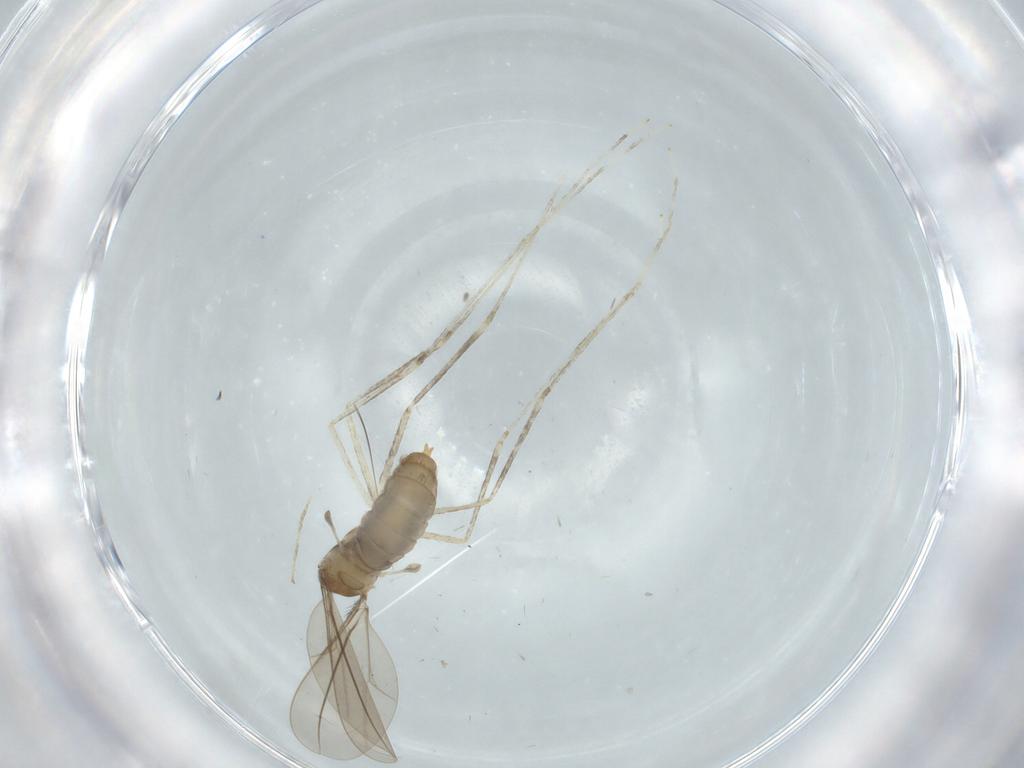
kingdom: Animalia
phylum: Arthropoda
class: Insecta
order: Diptera
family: Cecidomyiidae
